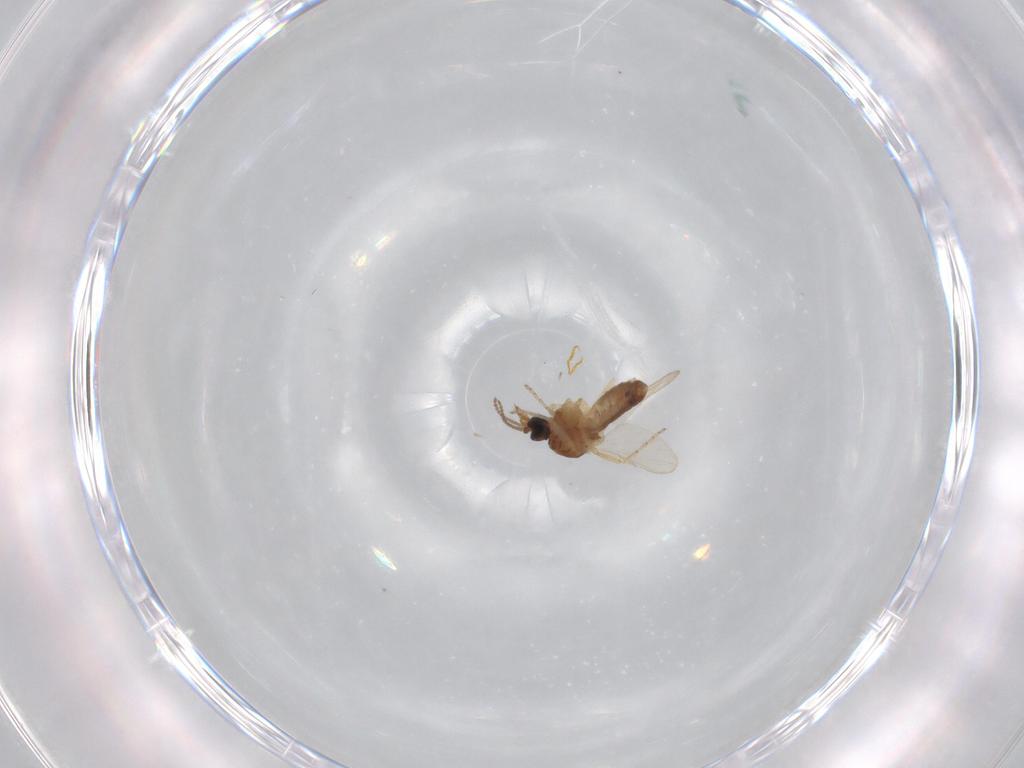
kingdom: Animalia
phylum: Arthropoda
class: Insecta
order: Diptera
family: Ceratopogonidae
